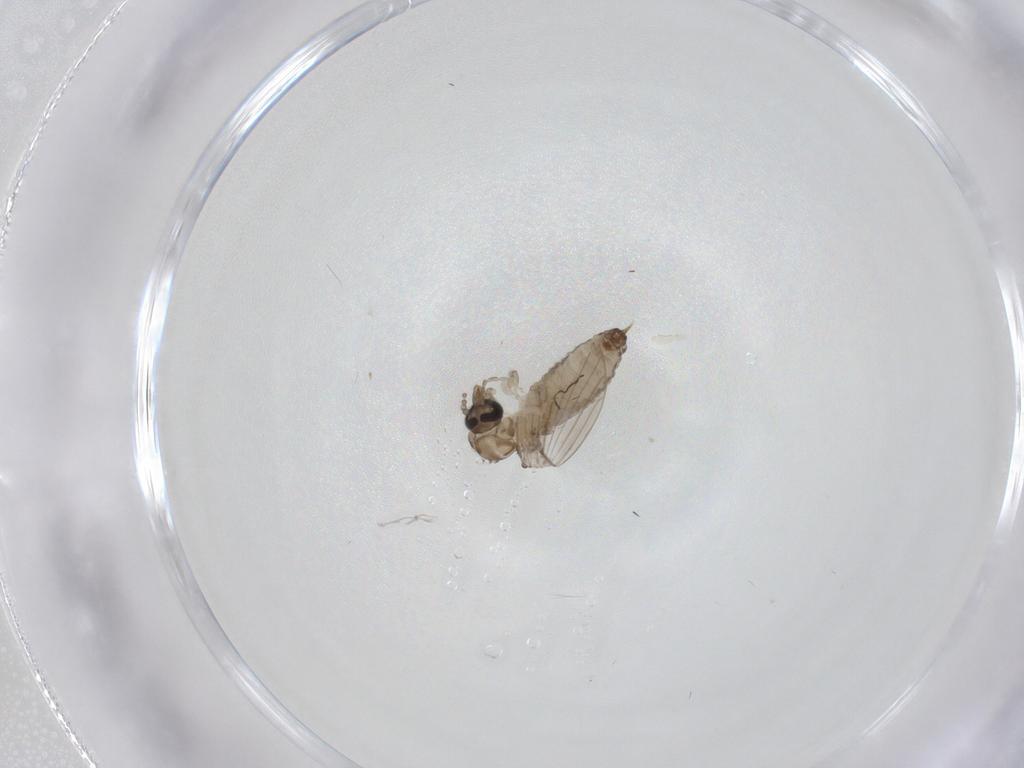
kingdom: Animalia
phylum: Arthropoda
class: Insecta
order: Diptera
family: Psychodidae
